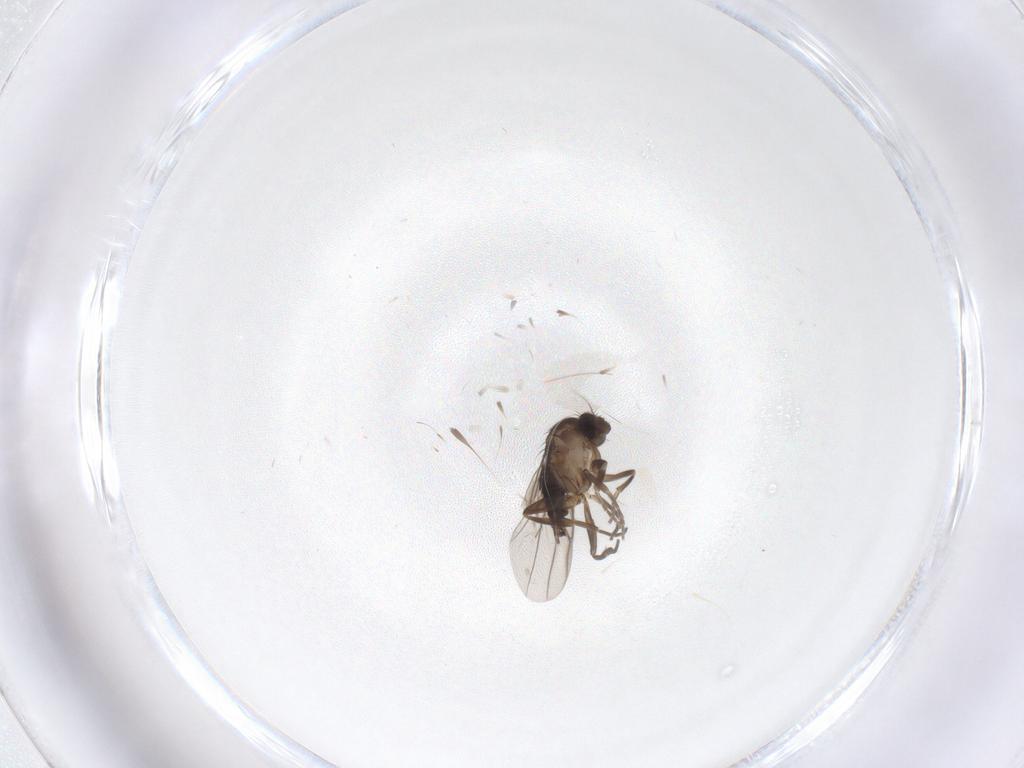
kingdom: Animalia
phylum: Arthropoda
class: Insecta
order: Diptera
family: Phoridae
